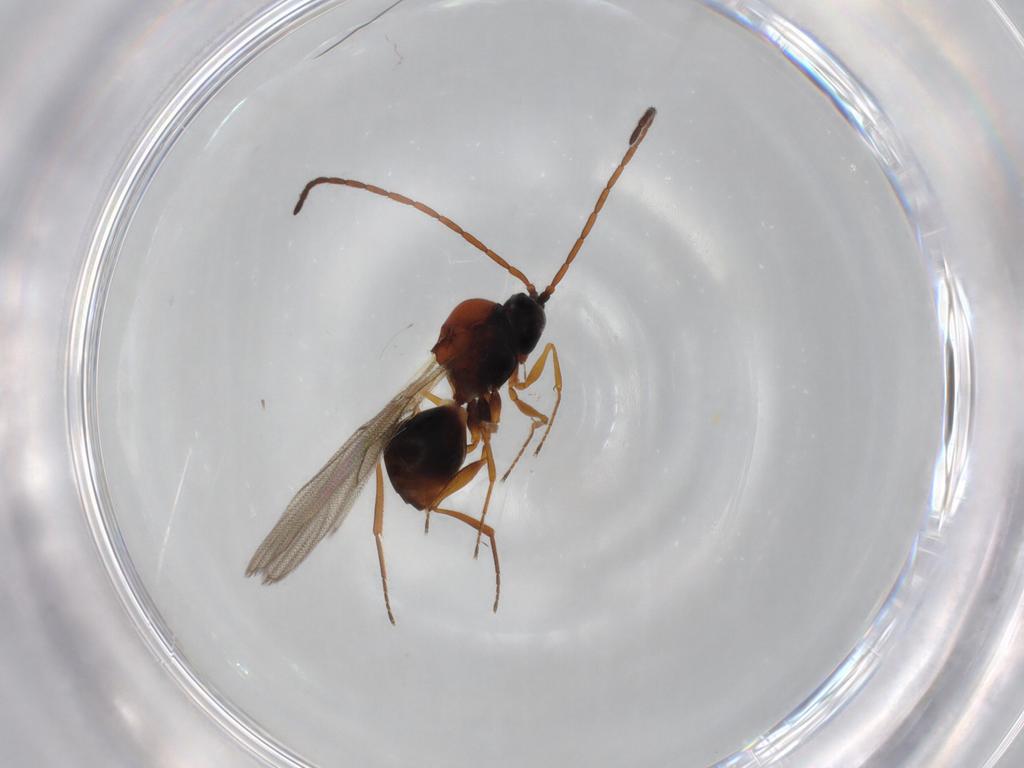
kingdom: Animalia
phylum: Arthropoda
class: Insecta
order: Hymenoptera
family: Figitidae
